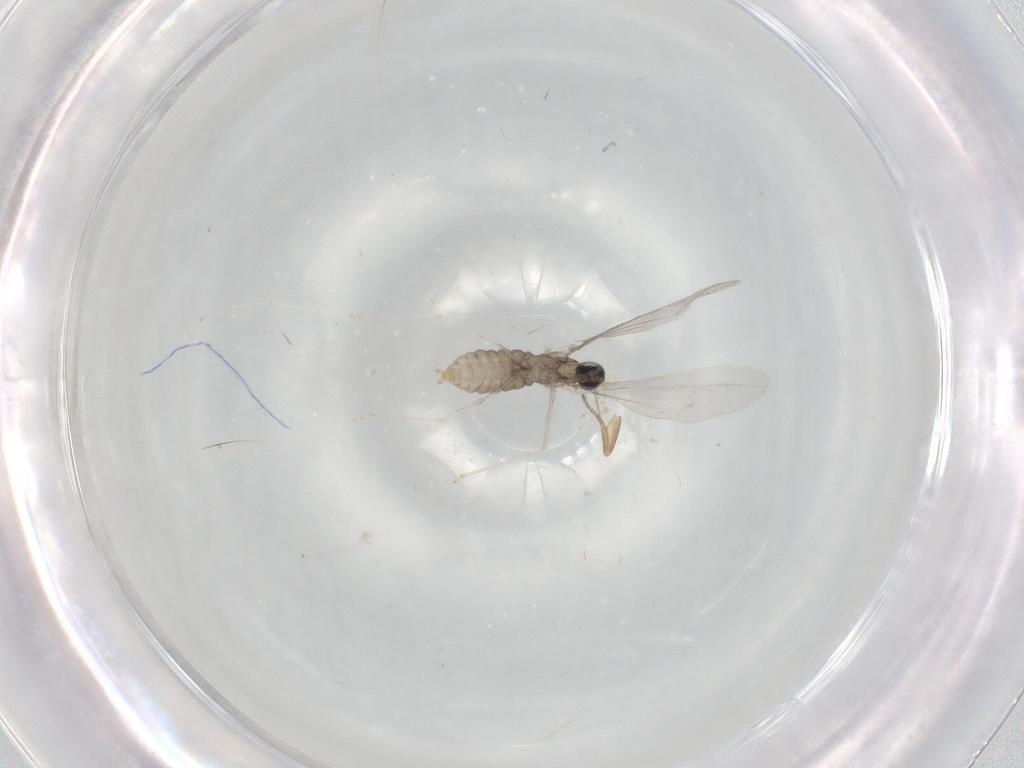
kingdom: Animalia
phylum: Arthropoda
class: Insecta
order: Diptera
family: Cecidomyiidae
